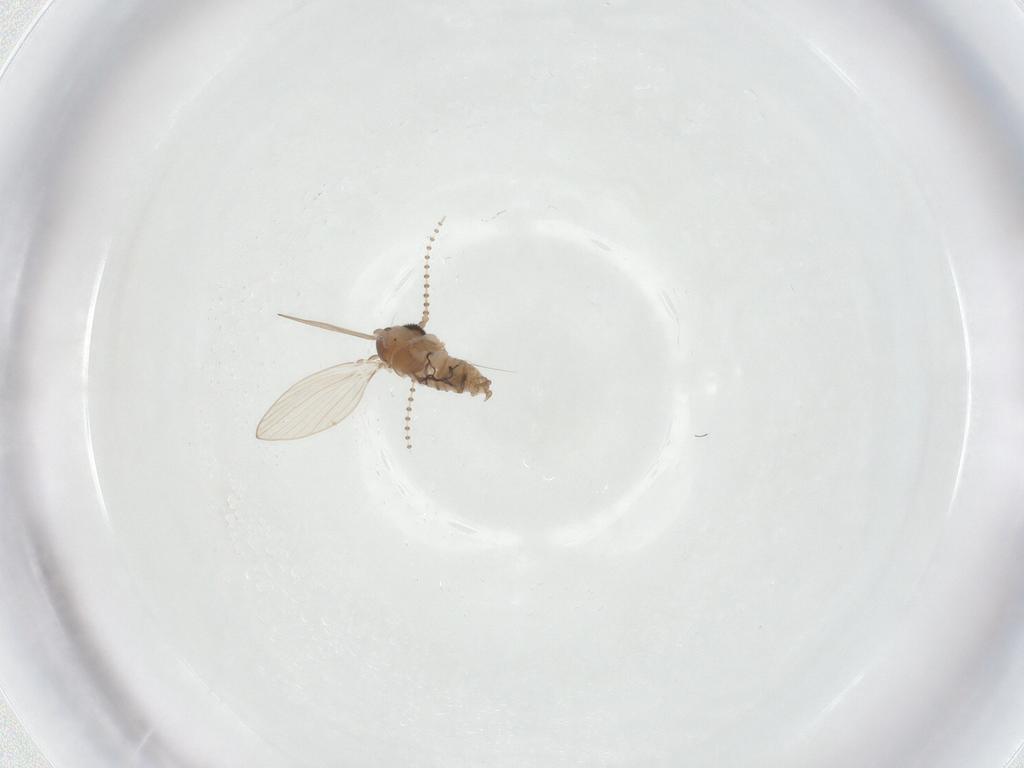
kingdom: Animalia
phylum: Arthropoda
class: Insecta
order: Diptera
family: Psychodidae
